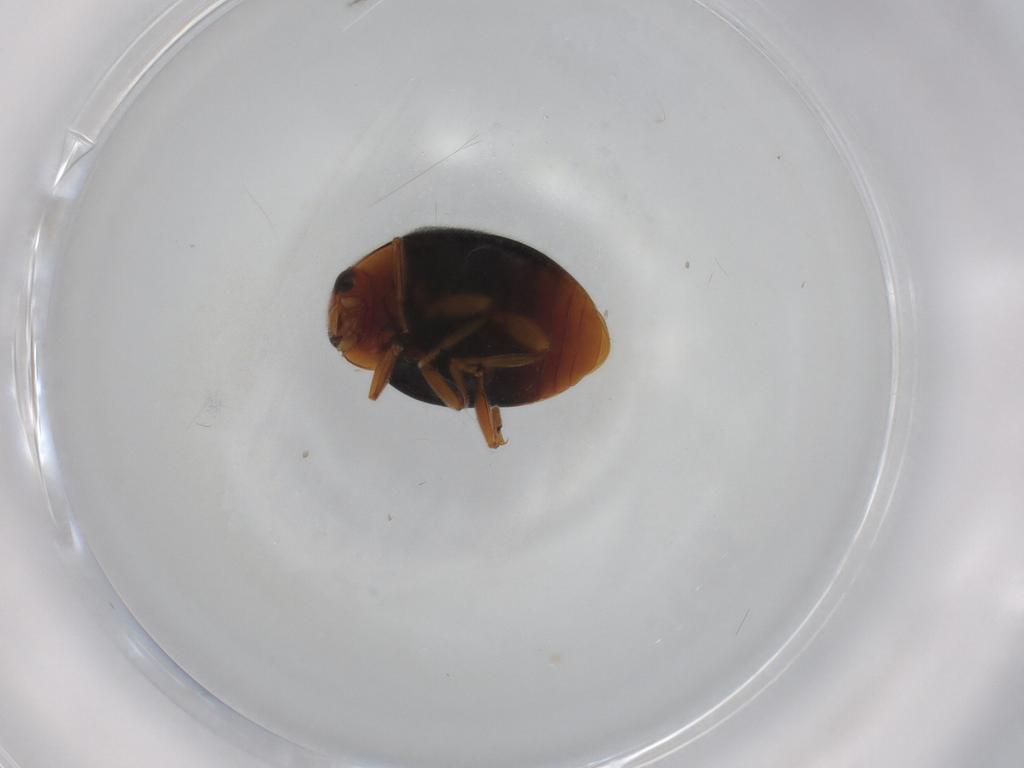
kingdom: Animalia
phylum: Arthropoda
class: Insecta
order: Coleoptera
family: Coccinellidae
